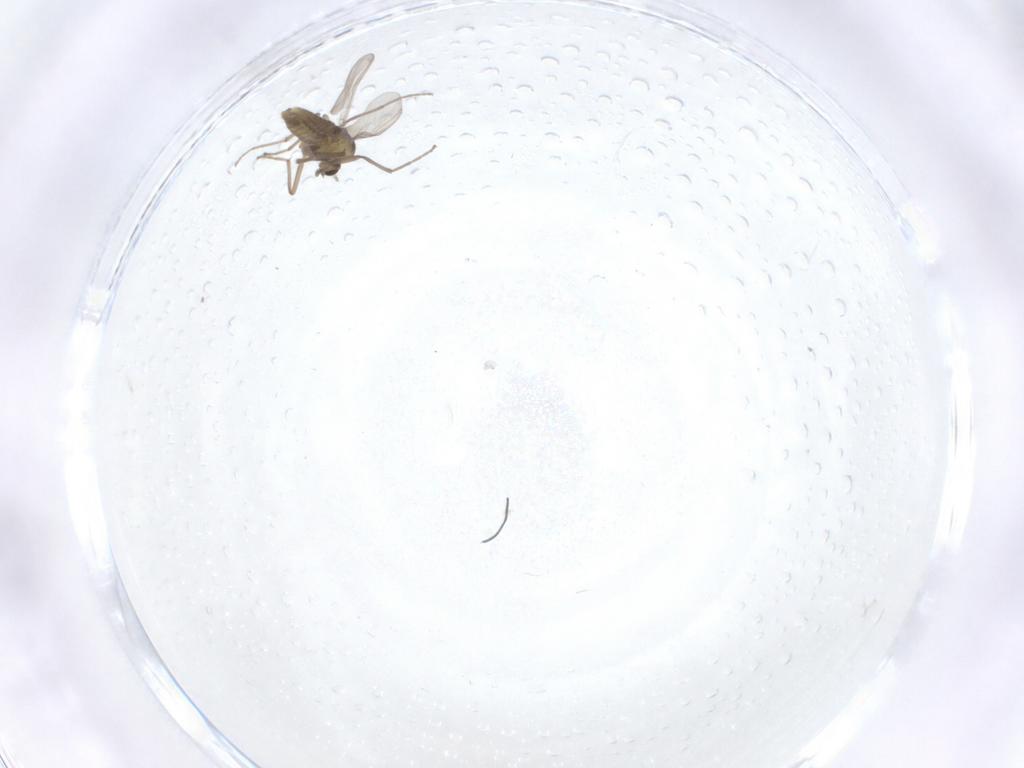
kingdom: Animalia
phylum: Arthropoda
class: Insecta
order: Diptera
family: Chironomidae
